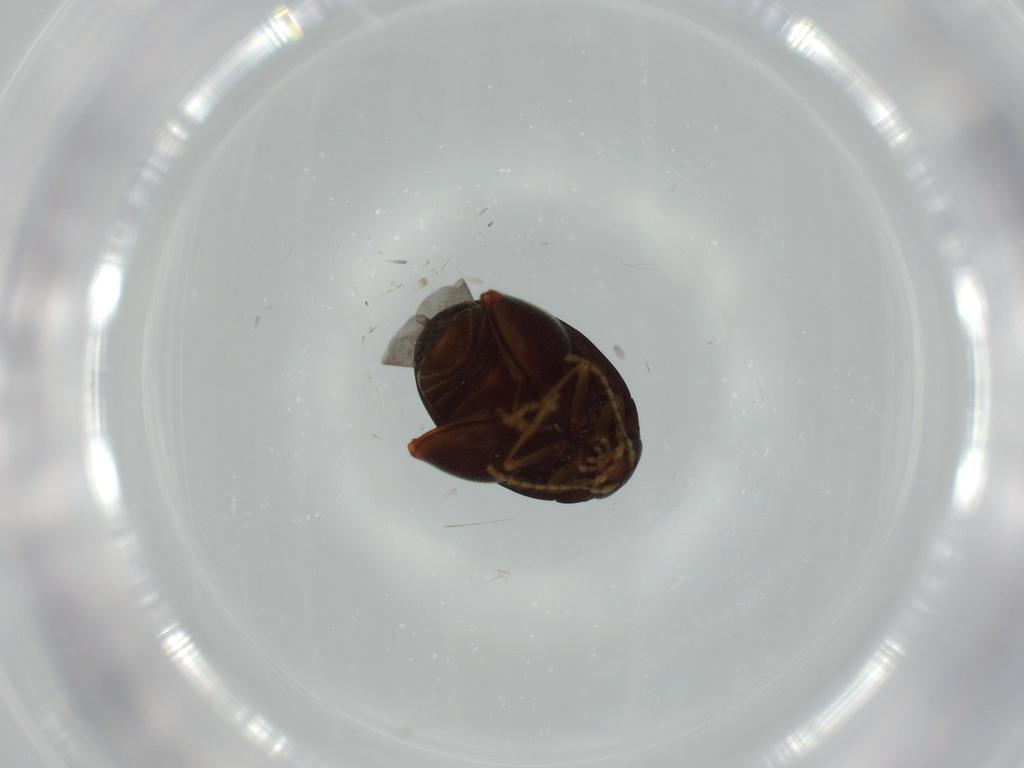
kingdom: Animalia
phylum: Arthropoda
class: Insecta
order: Coleoptera
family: Chrysomelidae
